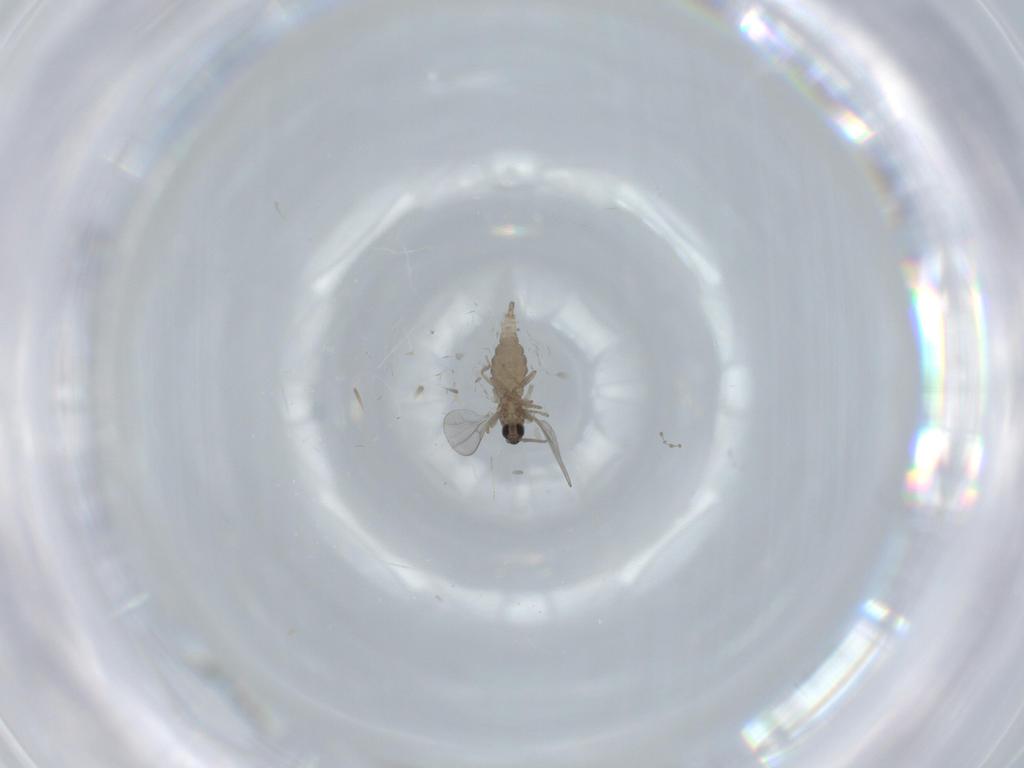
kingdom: Animalia
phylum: Arthropoda
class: Insecta
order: Diptera
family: Cecidomyiidae
